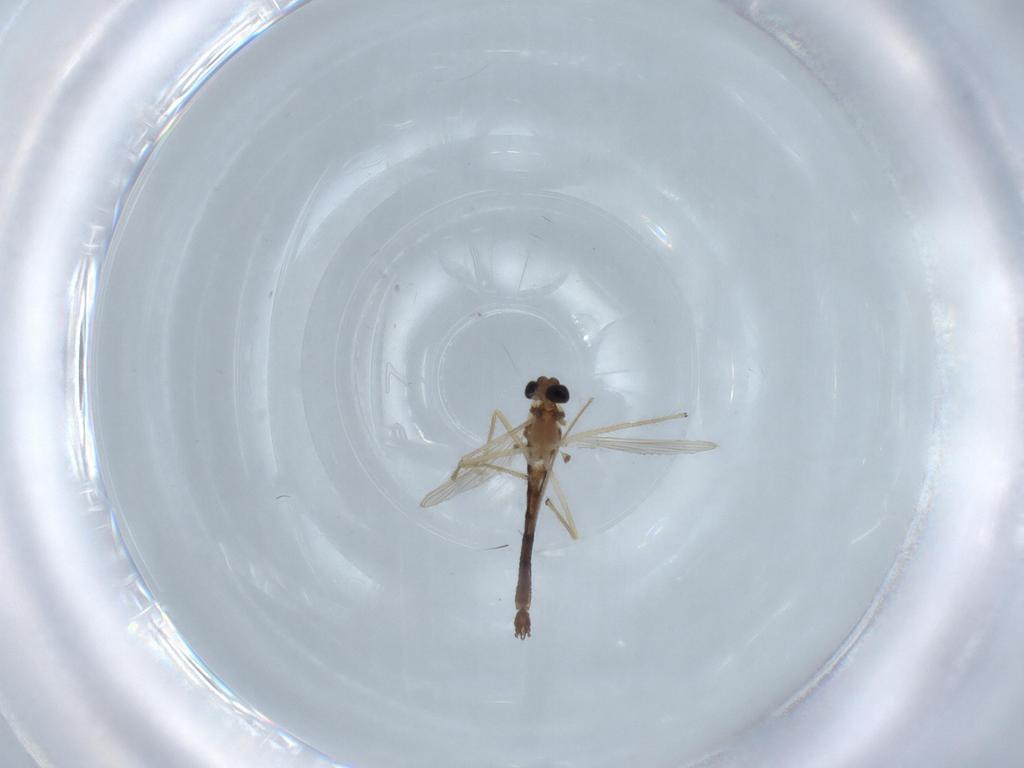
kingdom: Animalia
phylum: Arthropoda
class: Insecta
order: Diptera
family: Chironomidae
